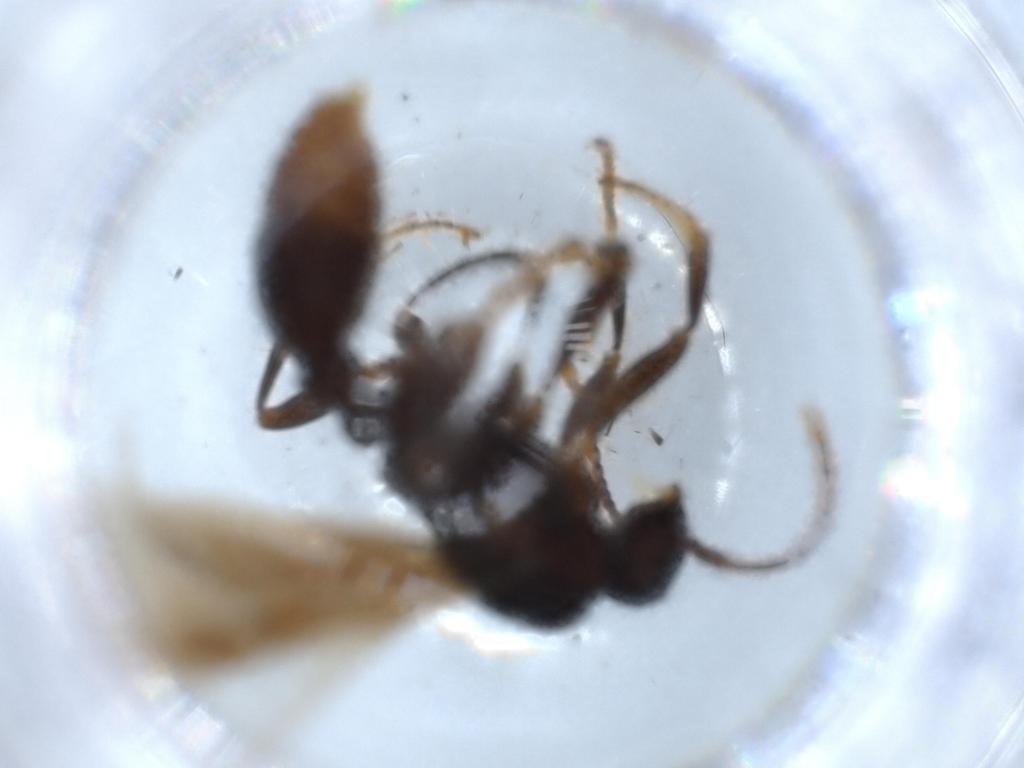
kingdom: Animalia
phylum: Arthropoda
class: Insecta
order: Hymenoptera
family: Formicidae
